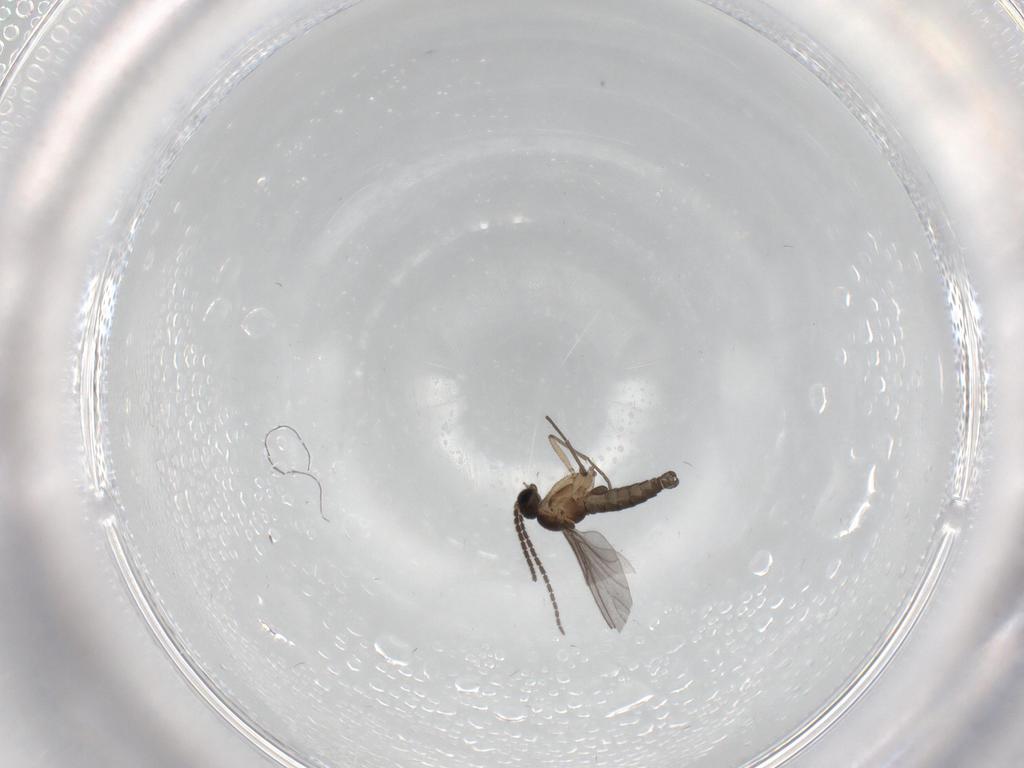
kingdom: Animalia
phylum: Arthropoda
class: Insecta
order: Diptera
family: Sciaridae
